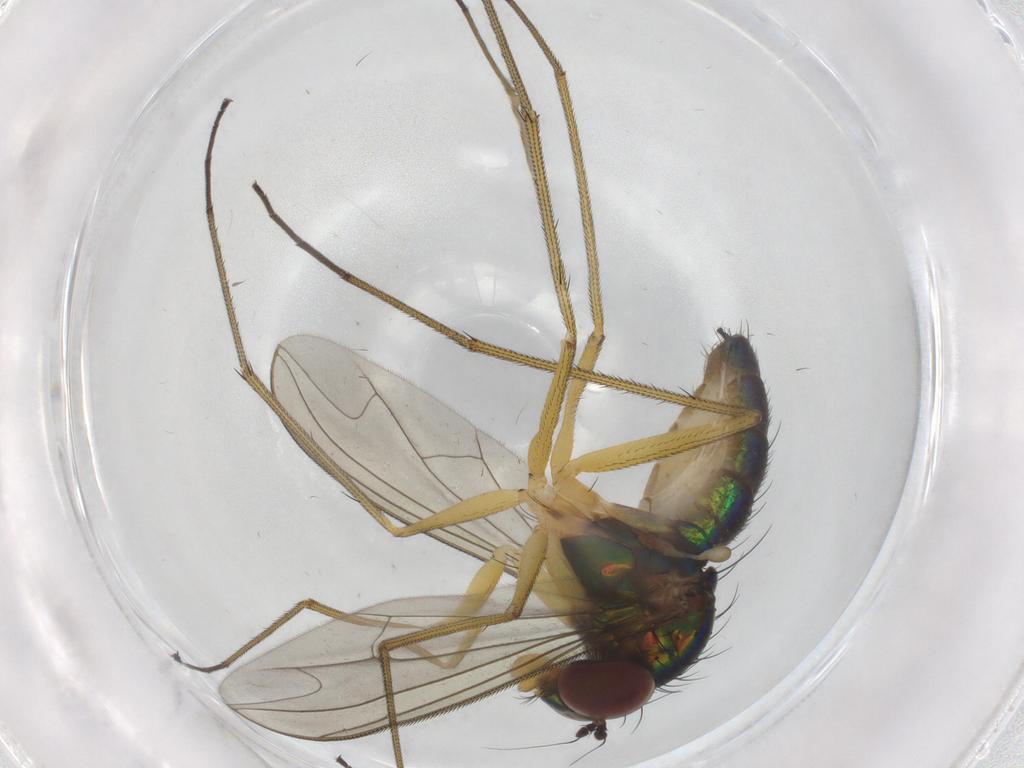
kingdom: Animalia
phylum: Arthropoda
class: Insecta
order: Diptera
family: Dolichopodidae
